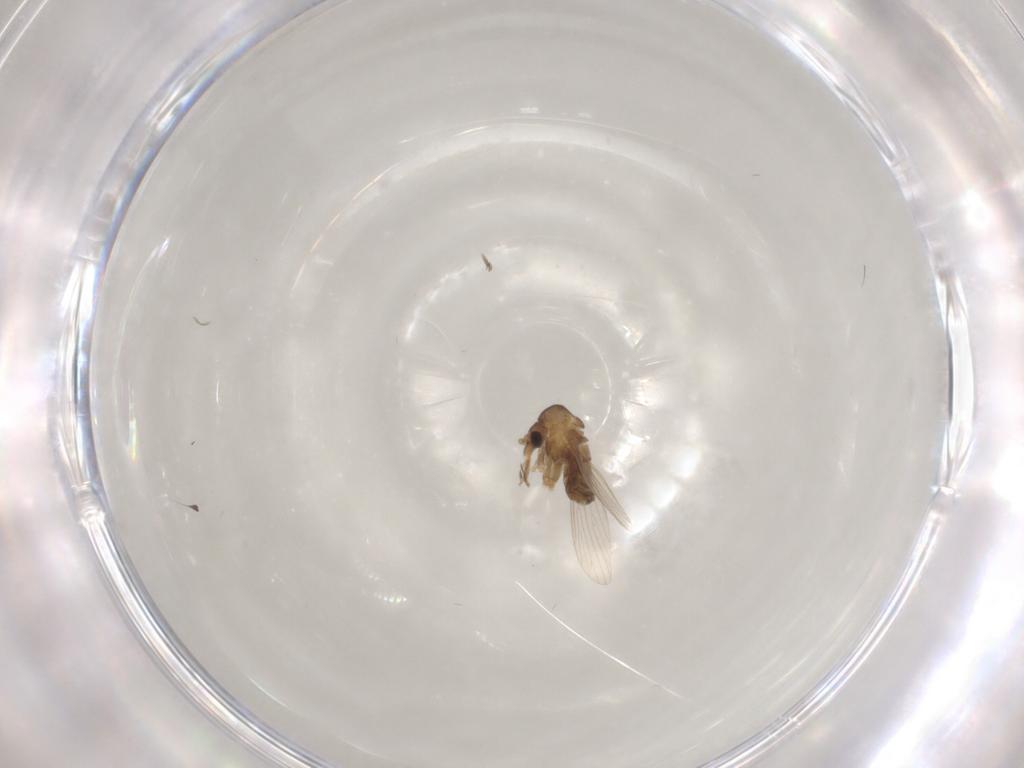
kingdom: Animalia
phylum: Arthropoda
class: Insecta
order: Diptera
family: Psychodidae
